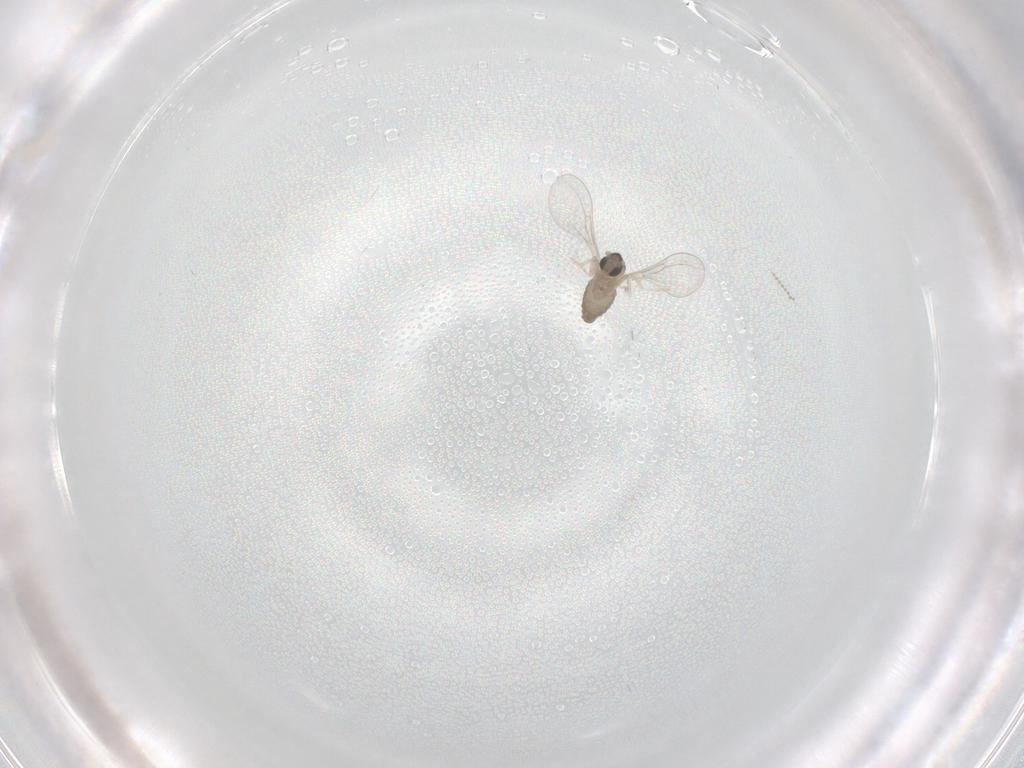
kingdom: Animalia
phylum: Arthropoda
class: Insecta
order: Diptera
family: Cecidomyiidae
